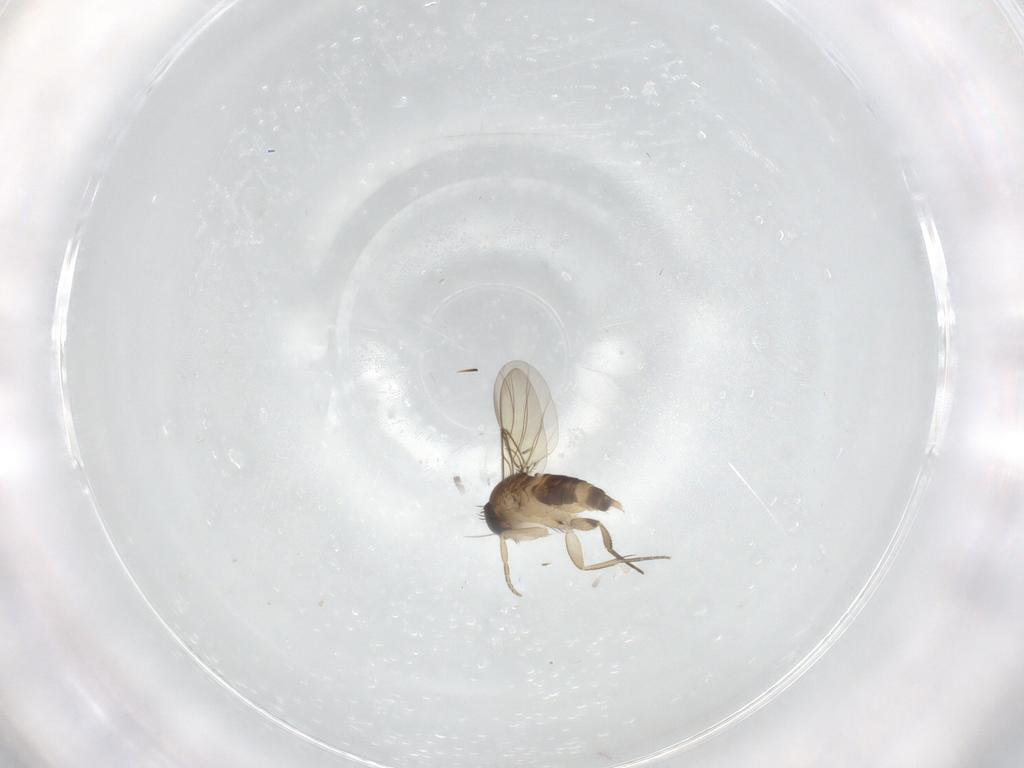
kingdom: Animalia
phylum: Arthropoda
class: Insecta
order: Diptera
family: Phoridae
